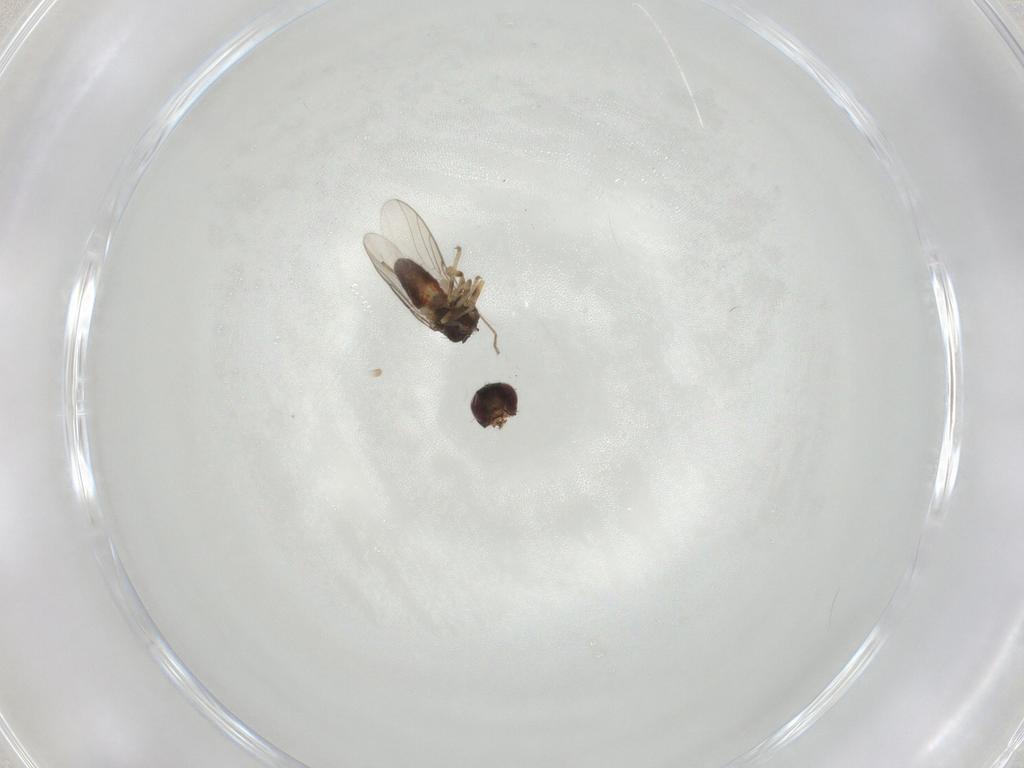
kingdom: Animalia
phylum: Arthropoda
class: Insecta
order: Diptera
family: Chloropidae
